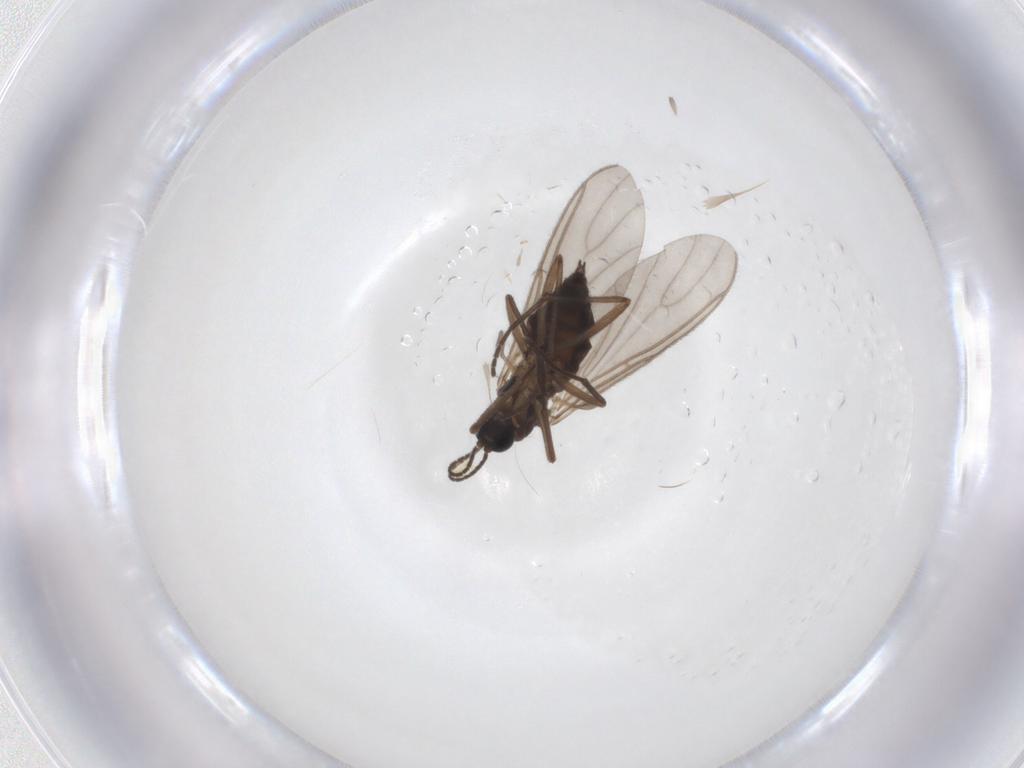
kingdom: Animalia
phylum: Arthropoda
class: Insecta
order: Diptera
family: Sciaridae
